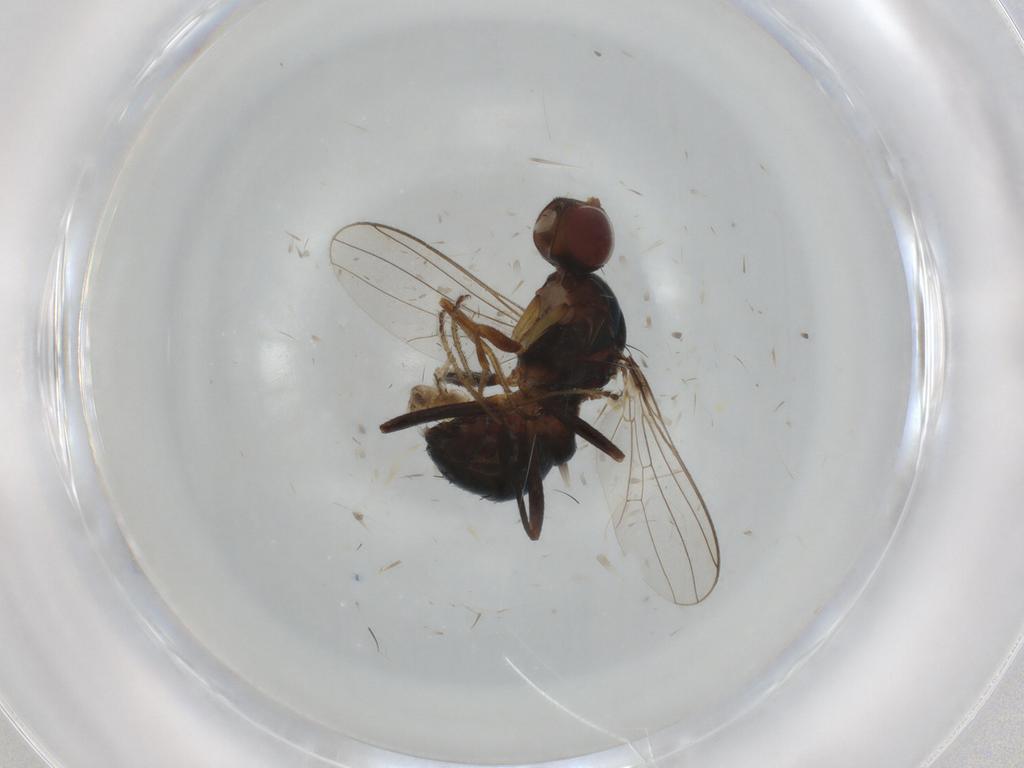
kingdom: Animalia
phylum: Arthropoda
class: Insecta
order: Diptera
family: Sepsidae
